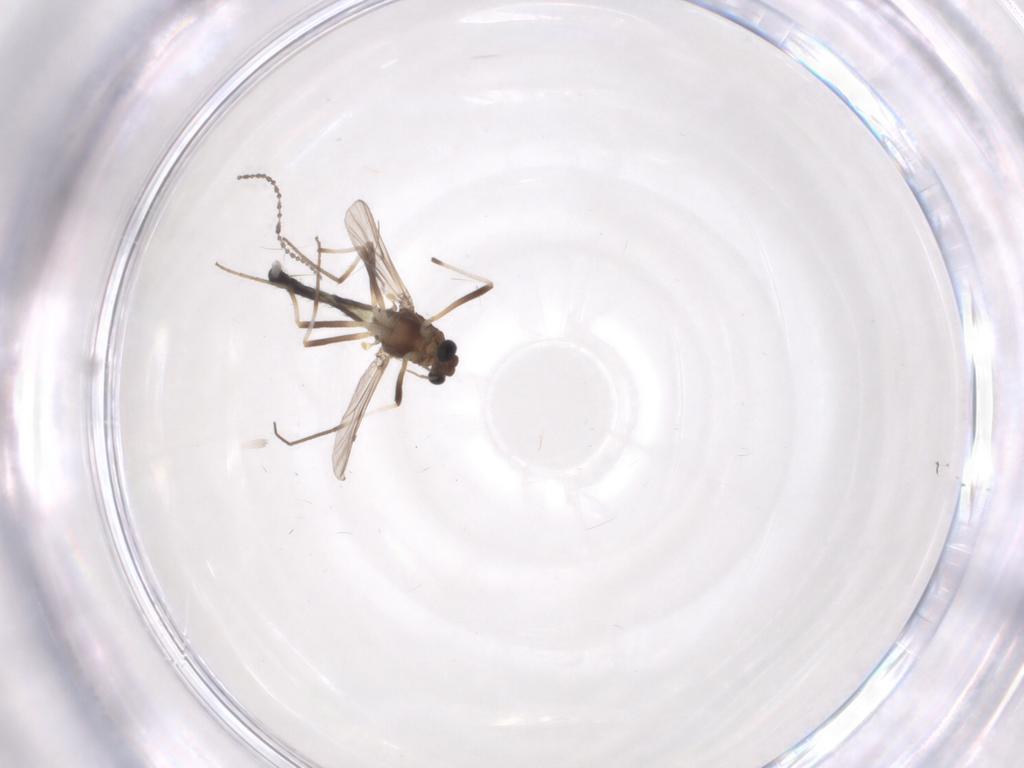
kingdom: Animalia
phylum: Arthropoda
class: Insecta
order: Diptera
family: Chironomidae
